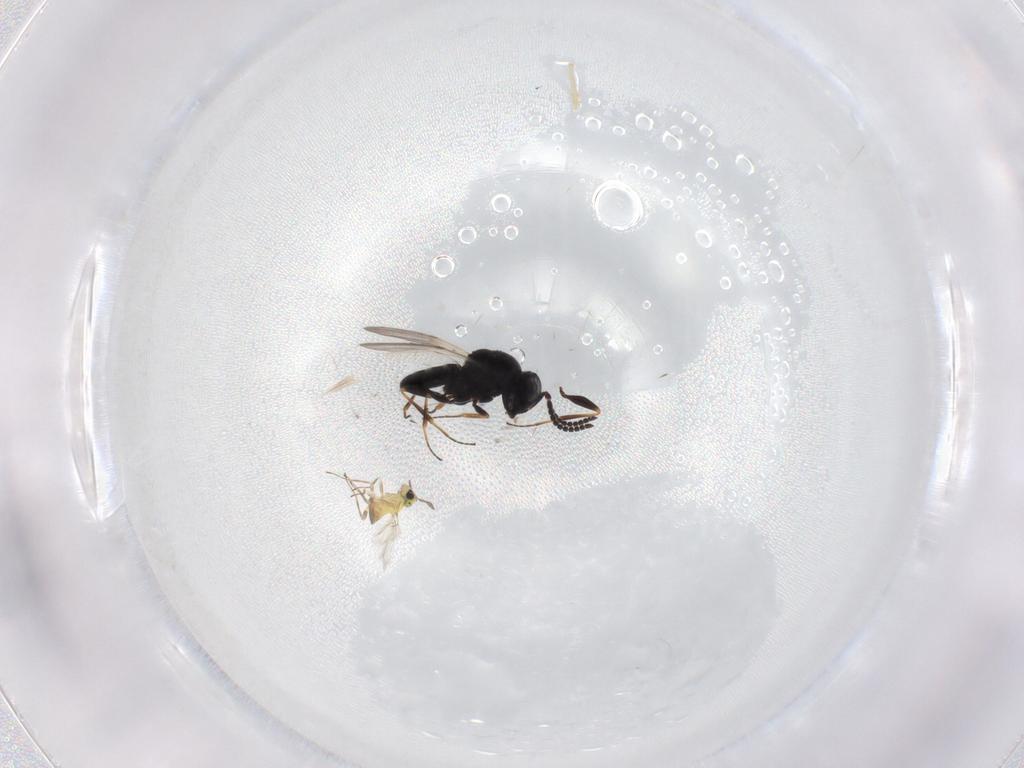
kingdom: Animalia
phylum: Arthropoda
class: Insecta
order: Hymenoptera
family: Scelionidae
